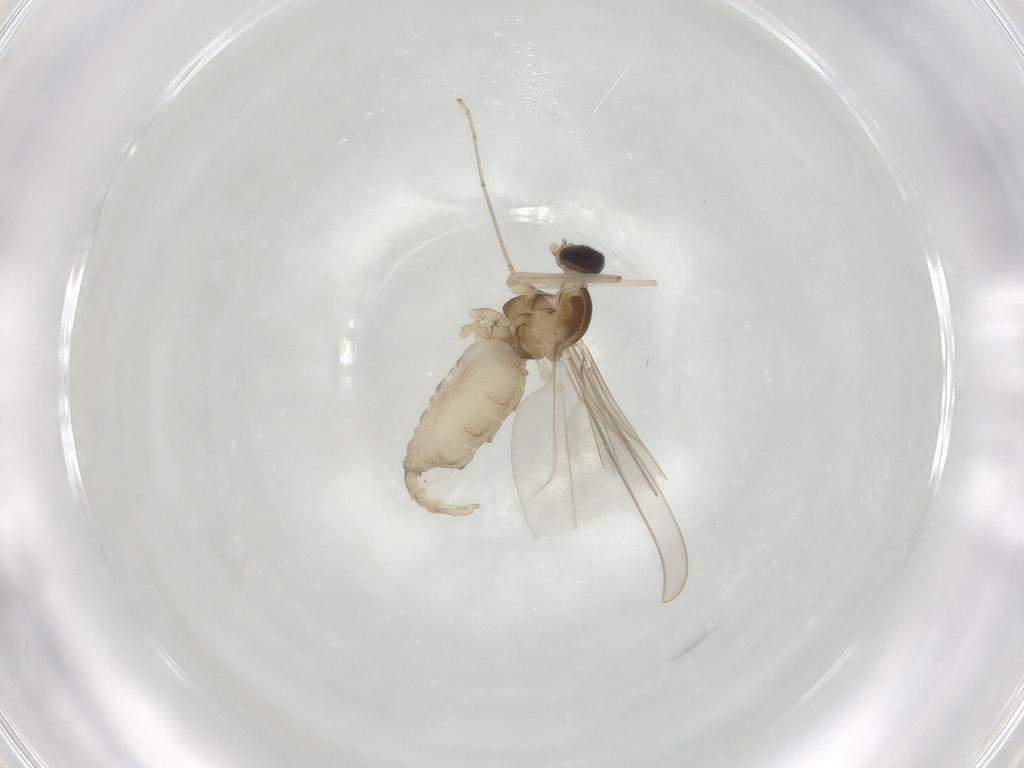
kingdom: Animalia
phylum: Arthropoda
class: Insecta
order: Diptera
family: Cecidomyiidae
